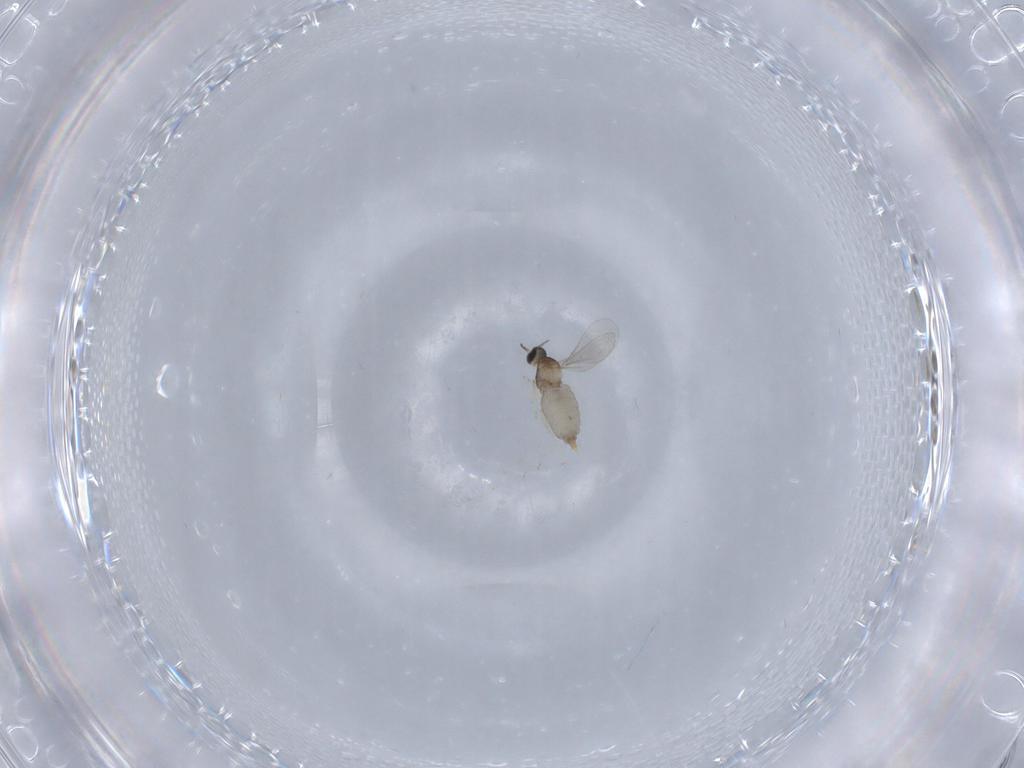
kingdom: Animalia
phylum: Arthropoda
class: Insecta
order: Diptera
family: Chironomidae
